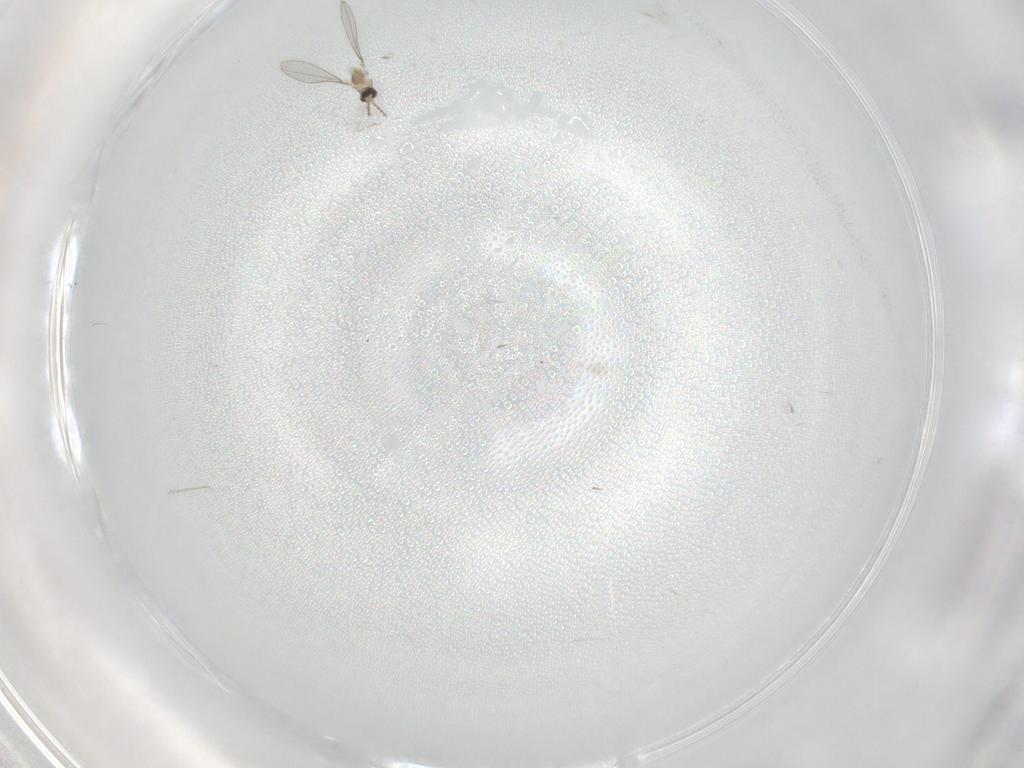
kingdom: Animalia
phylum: Arthropoda
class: Insecta
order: Diptera
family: Cecidomyiidae
